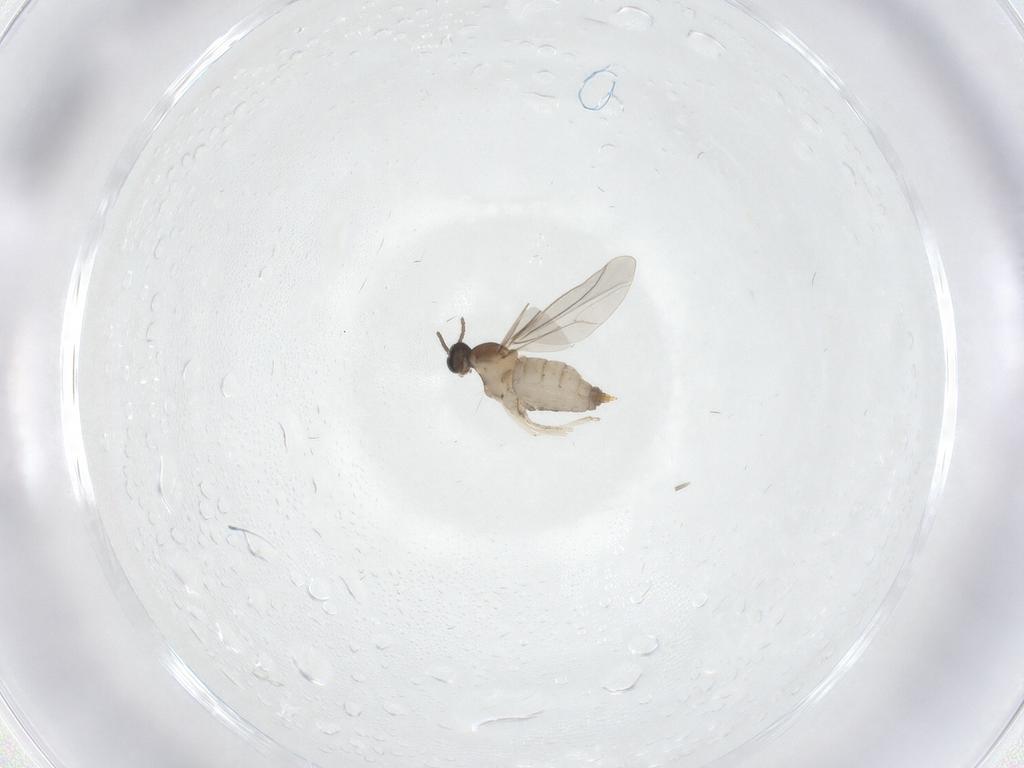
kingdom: Animalia
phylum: Arthropoda
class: Insecta
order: Diptera
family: Cecidomyiidae
